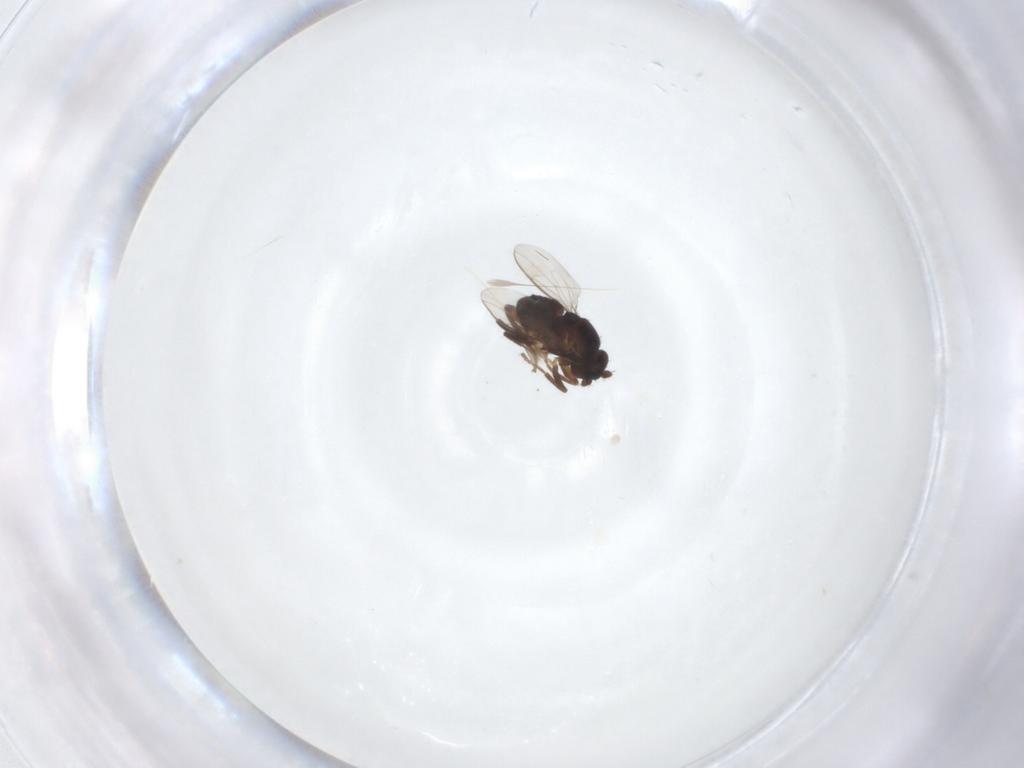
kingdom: Animalia
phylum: Arthropoda
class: Insecta
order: Diptera
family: Sphaeroceridae
